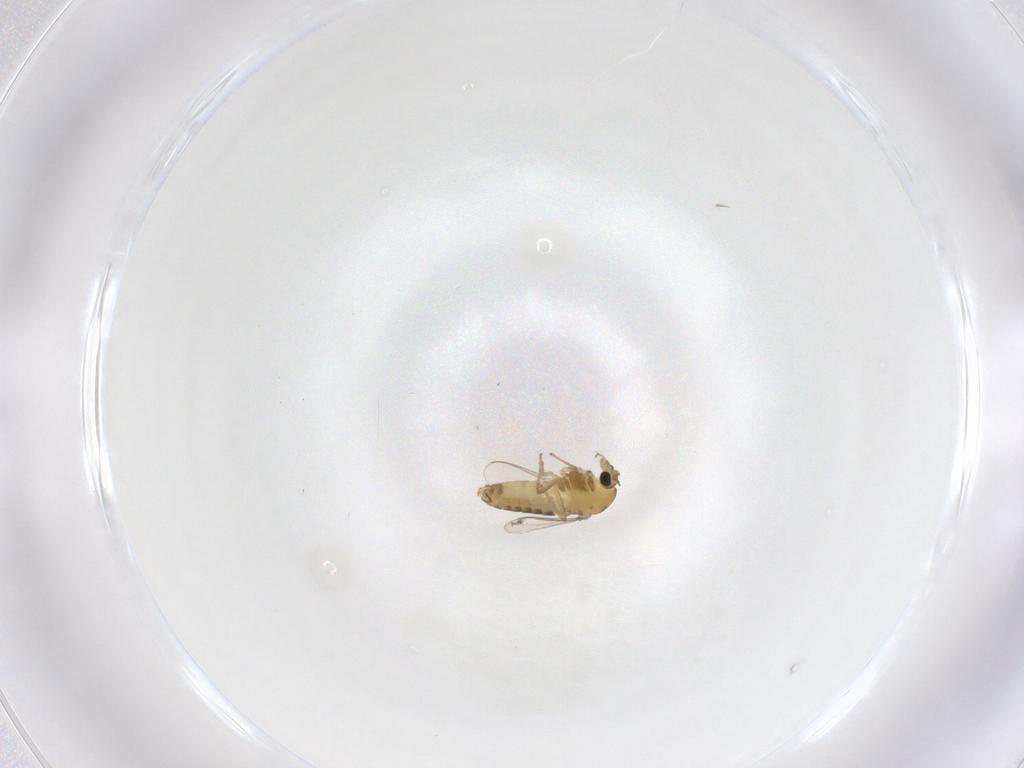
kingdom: Animalia
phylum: Arthropoda
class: Insecta
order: Diptera
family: Chironomidae
